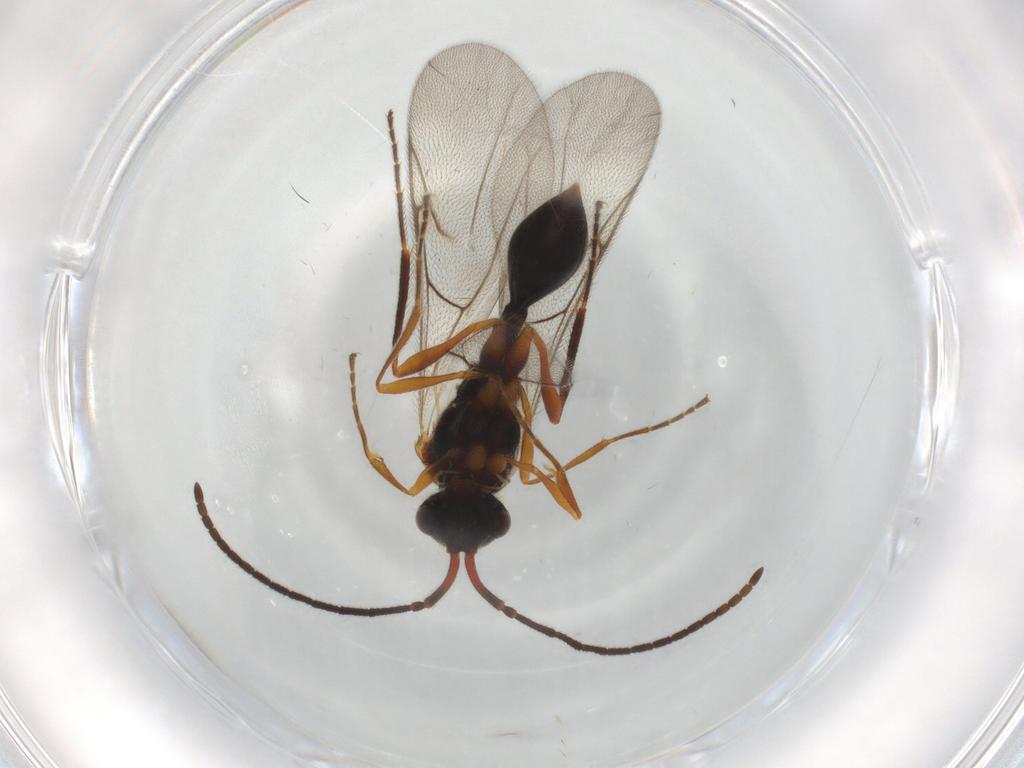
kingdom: Animalia
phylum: Arthropoda
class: Insecta
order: Hymenoptera
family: Diapriidae
